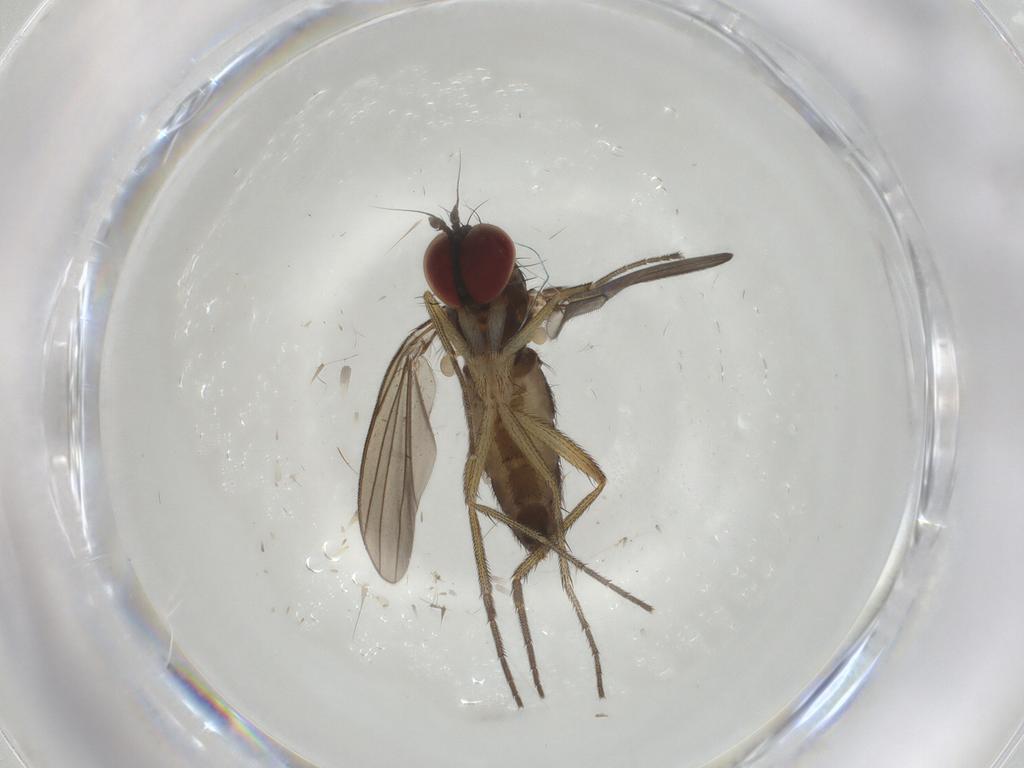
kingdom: Animalia
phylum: Arthropoda
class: Insecta
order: Diptera
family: Dolichopodidae
